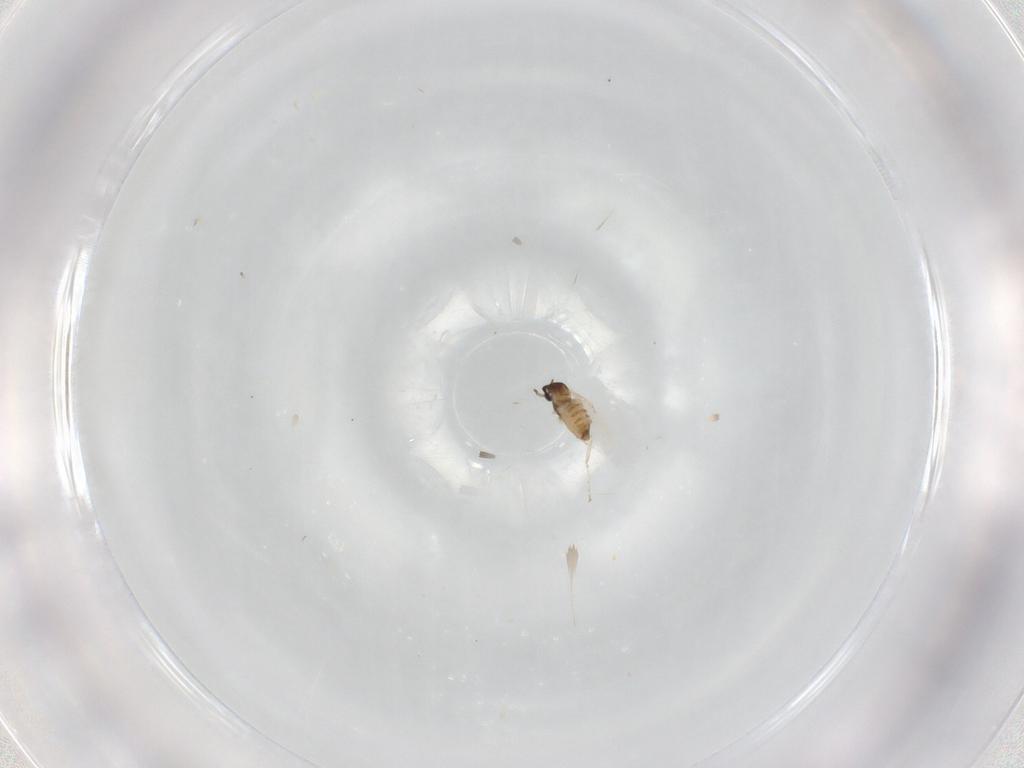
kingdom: Animalia
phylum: Arthropoda
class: Insecta
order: Diptera
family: Cecidomyiidae
